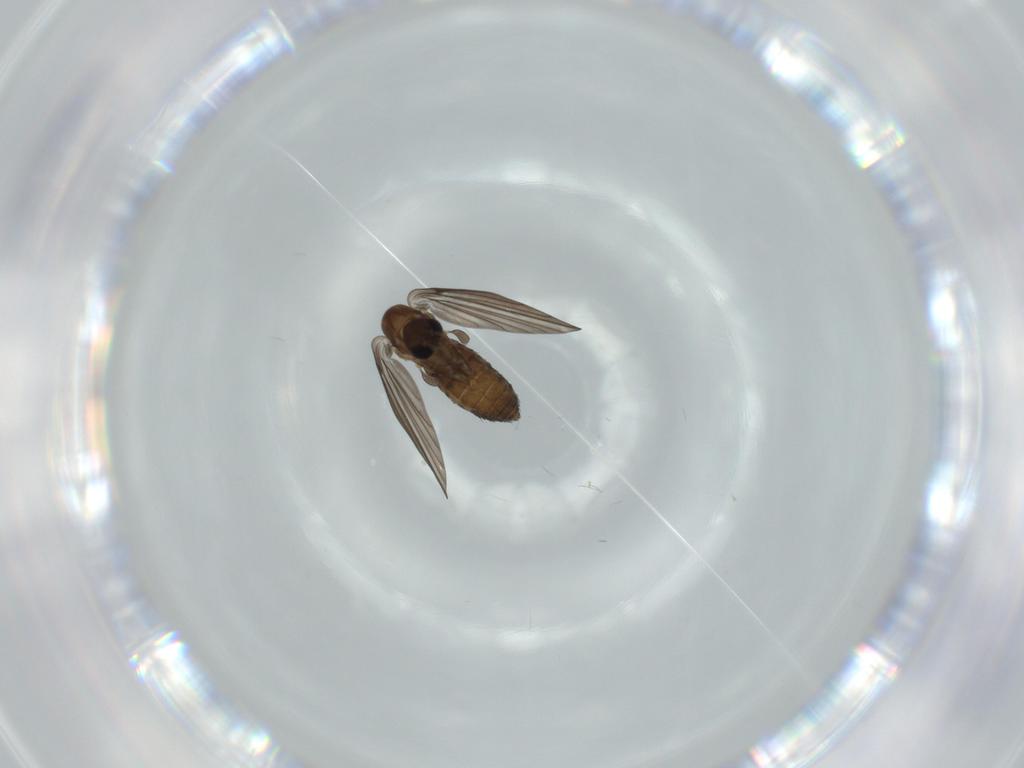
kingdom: Animalia
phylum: Arthropoda
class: Insecta
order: Diptera
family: Psychodidae
